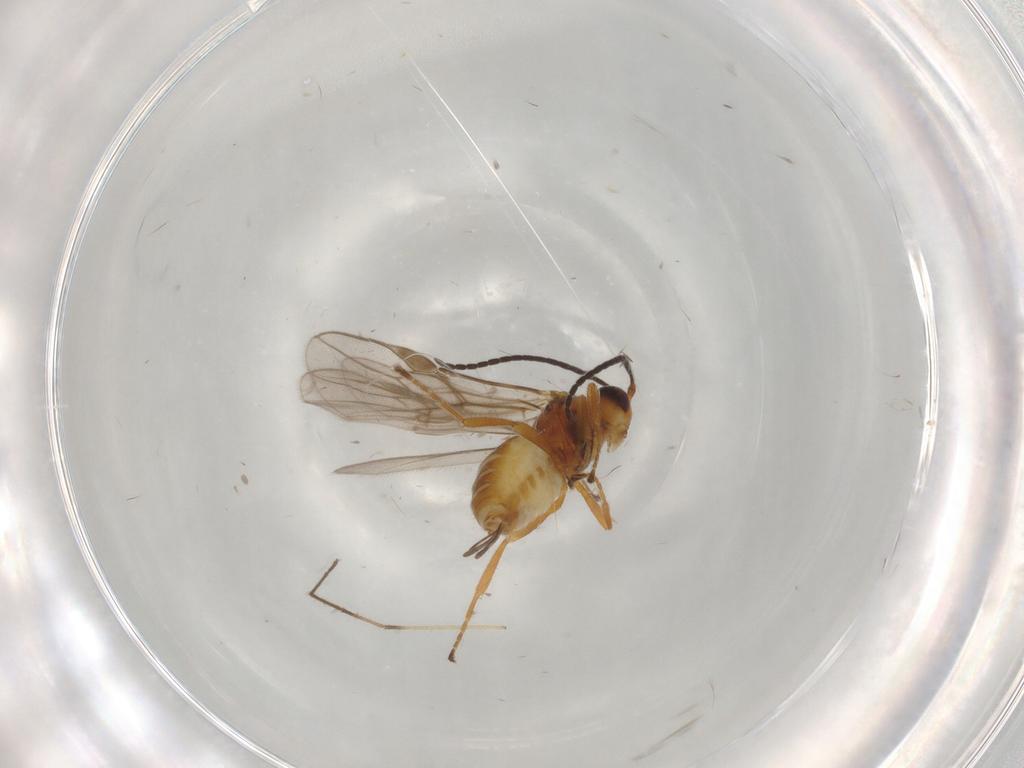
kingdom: Animalia
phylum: Arthropoda
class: Insecta
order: Hymenoptera
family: Braconidae
